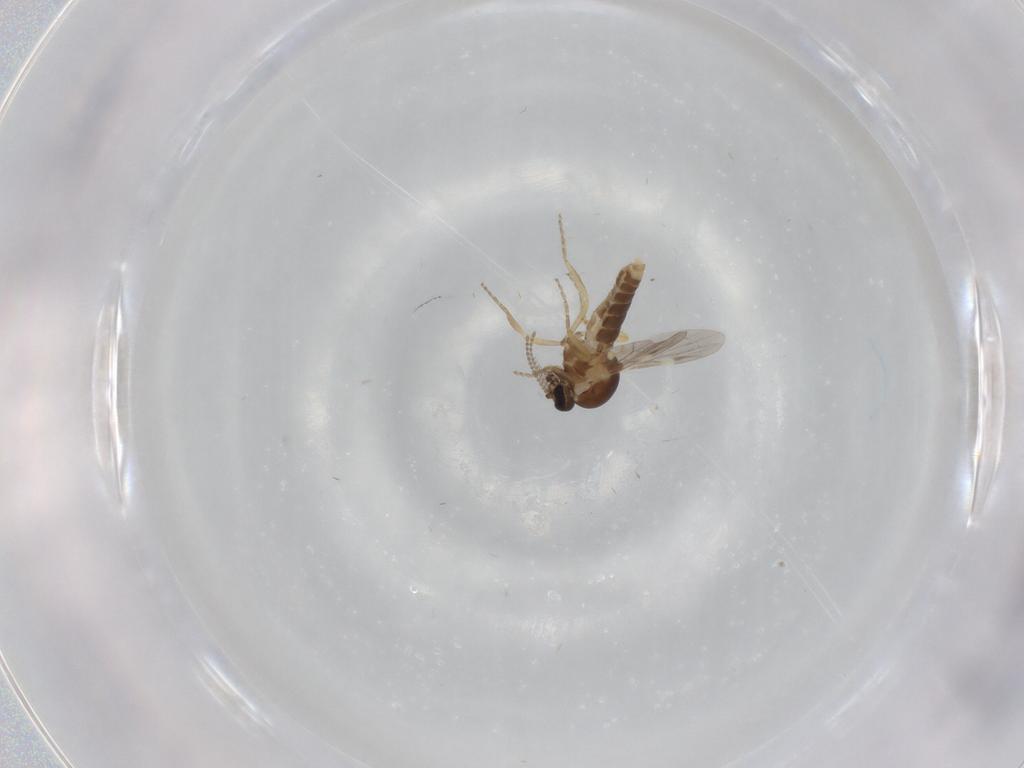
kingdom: Animalia
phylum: Arthropoda
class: Insecta
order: Diptera
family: Ceratopogonidae
